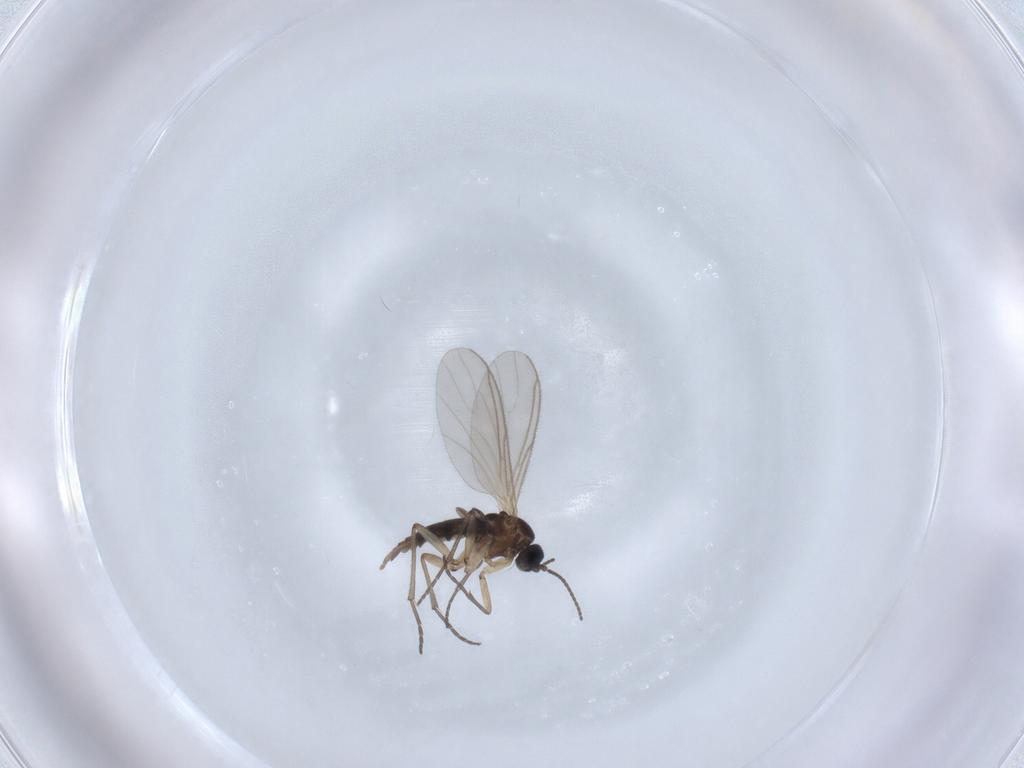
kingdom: Animalia
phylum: Arthropoda
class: Insecta
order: Diptera
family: Sciaridae
